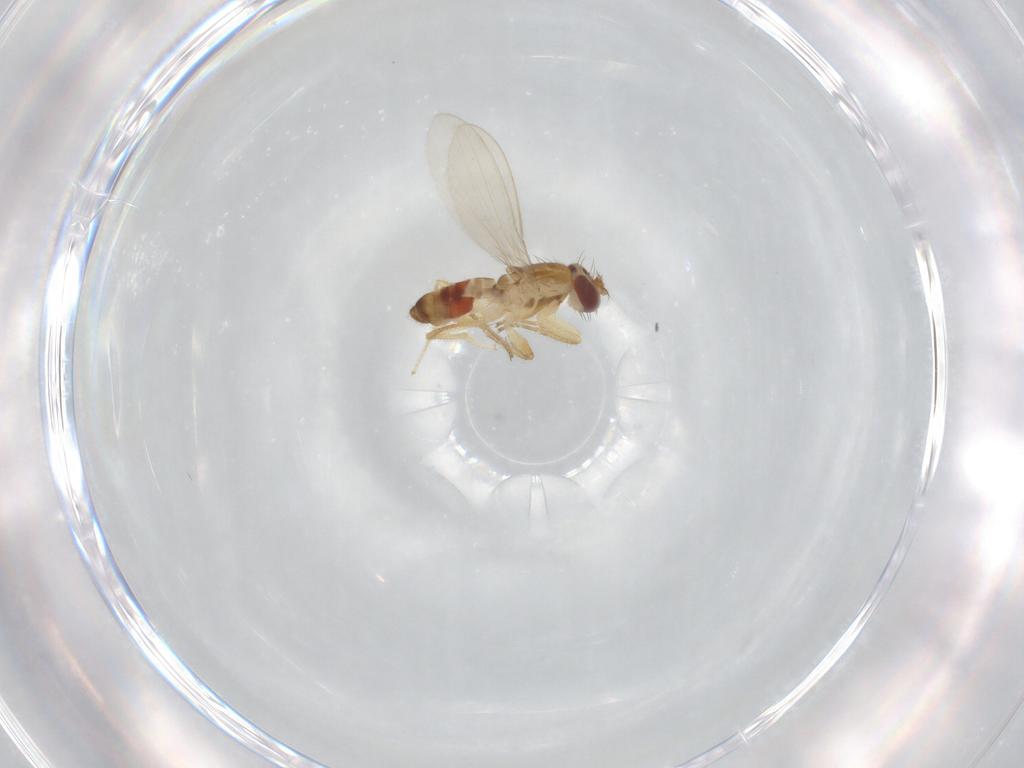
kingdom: Animalia
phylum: Arthropoda
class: Insecta
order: Diptera
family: Periscelididae
